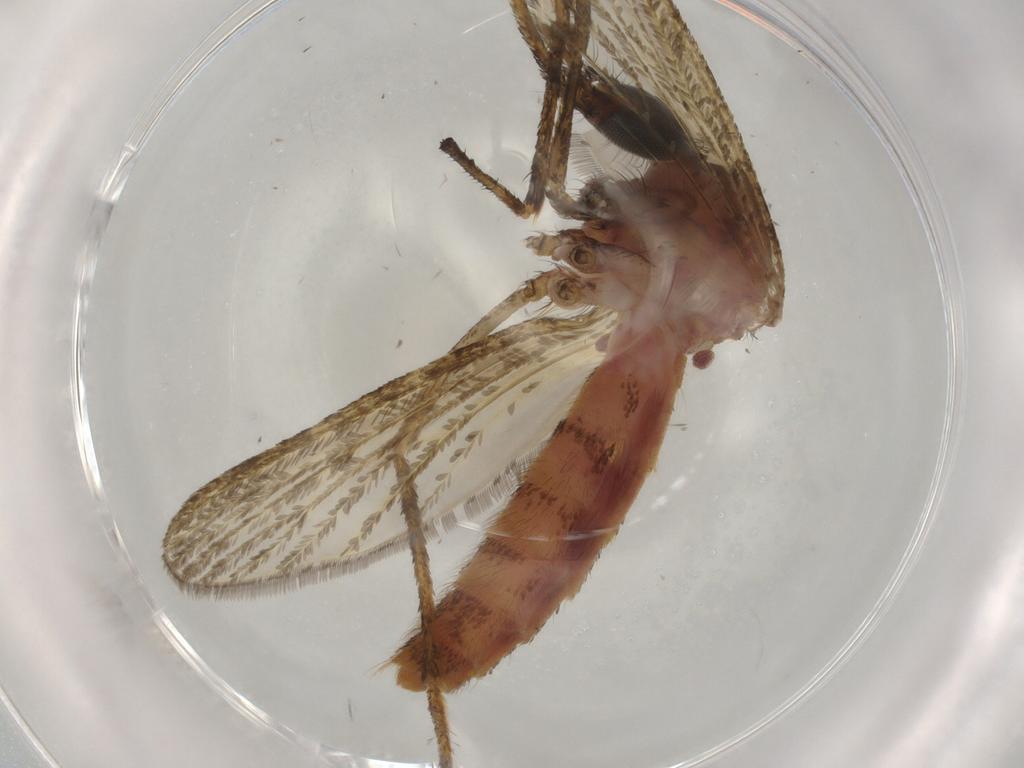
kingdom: Animalia
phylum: Arthropoda
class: Insecta
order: Diptera
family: Culicidae
